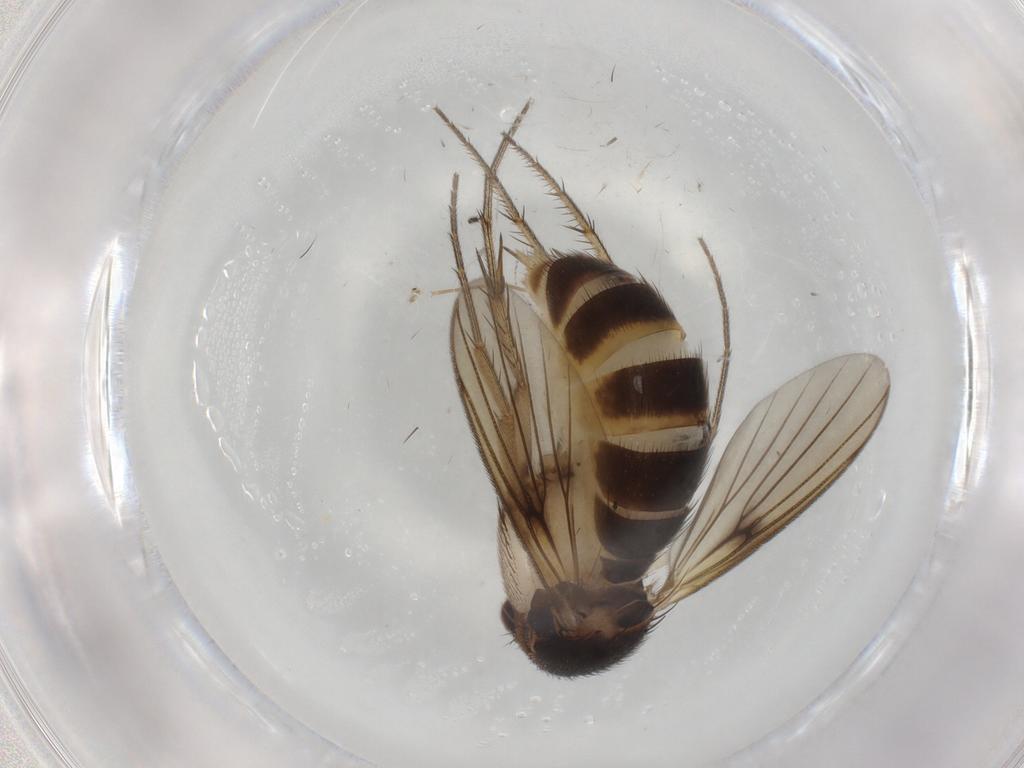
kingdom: Animalia
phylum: Arthropoda
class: Insecta
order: Diptera
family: Mycetophilidae
